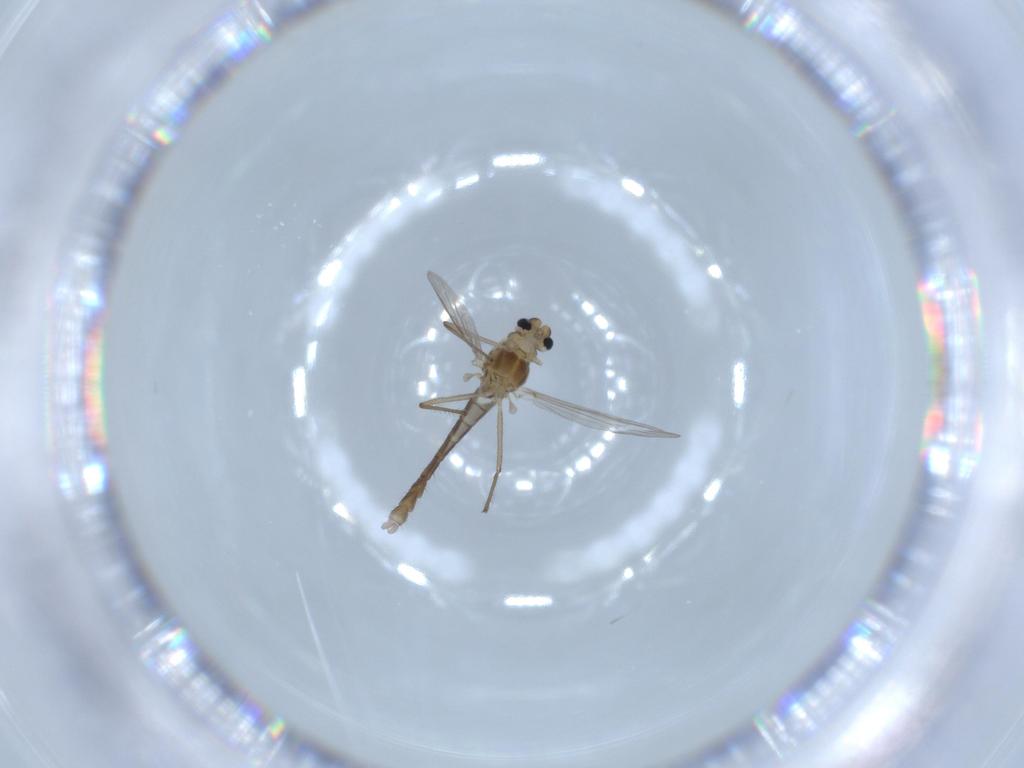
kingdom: Animalia
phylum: Arthropoda
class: Insecta
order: Diptera
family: Chironomidae
